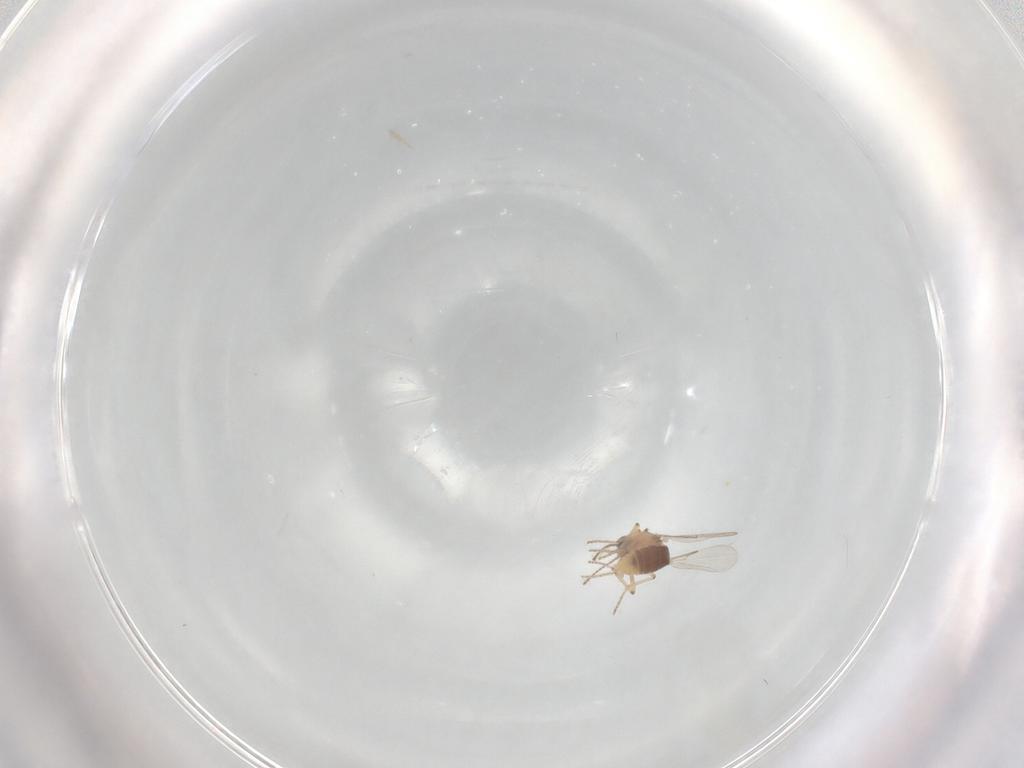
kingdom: Animalia
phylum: Arthropoda
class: Insecta
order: Diptera
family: Ceratopogonidae
